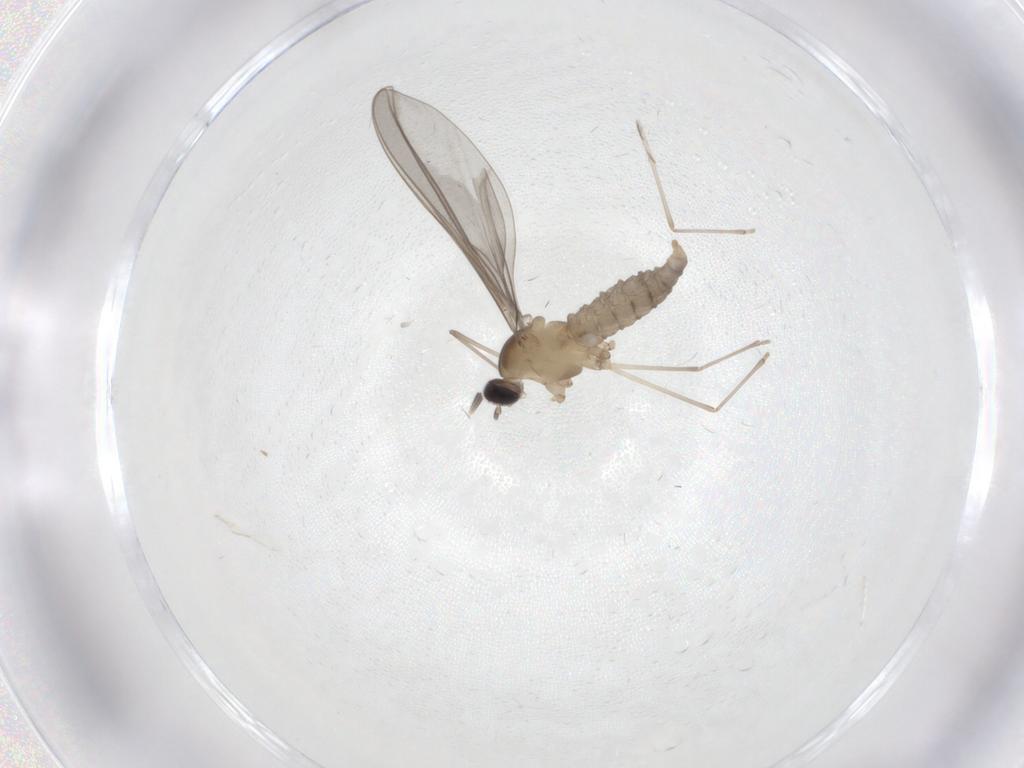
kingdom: Animalia
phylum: Arthropoda
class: Insecta
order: Diptera
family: Cecidomyiidae
